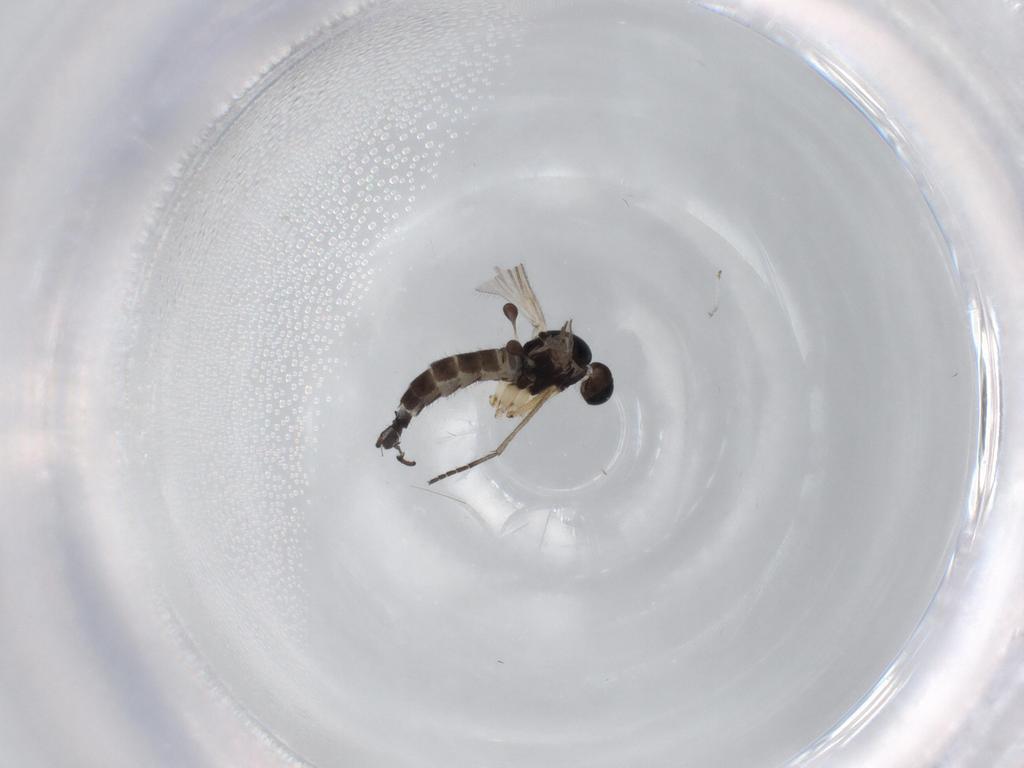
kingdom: Animalia
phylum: Arthropoda
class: Insecta
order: Diptera
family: Sciaridae
